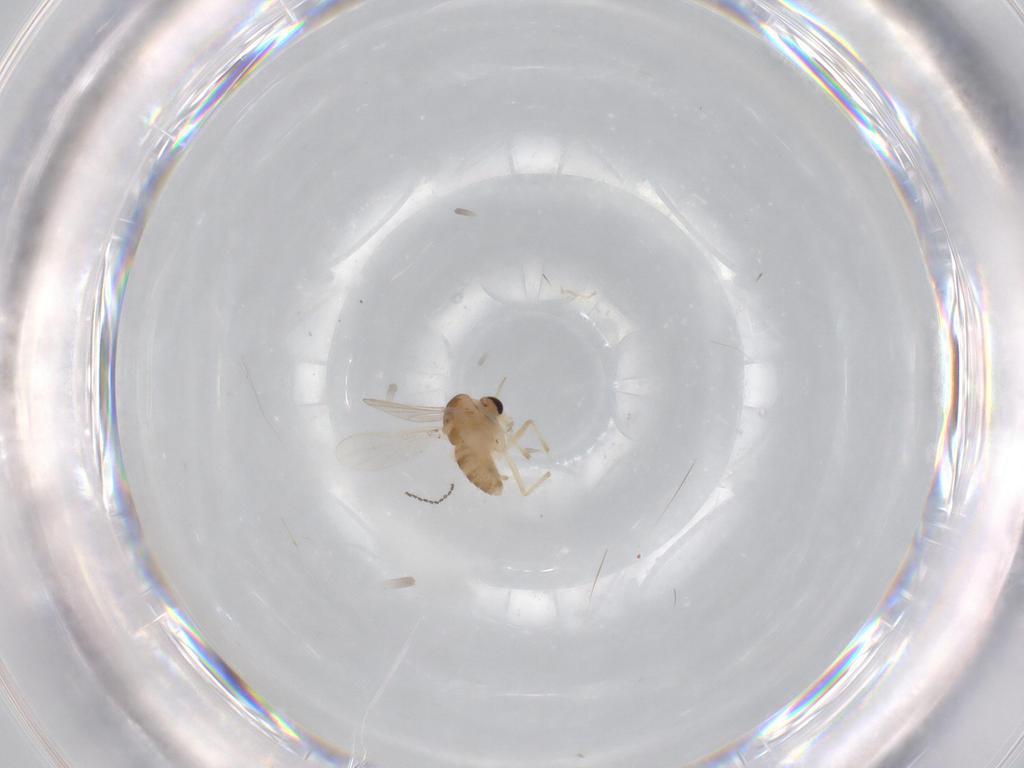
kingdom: Animalia
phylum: Arthropoda
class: Insecta
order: Diptera
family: Chironomidae
